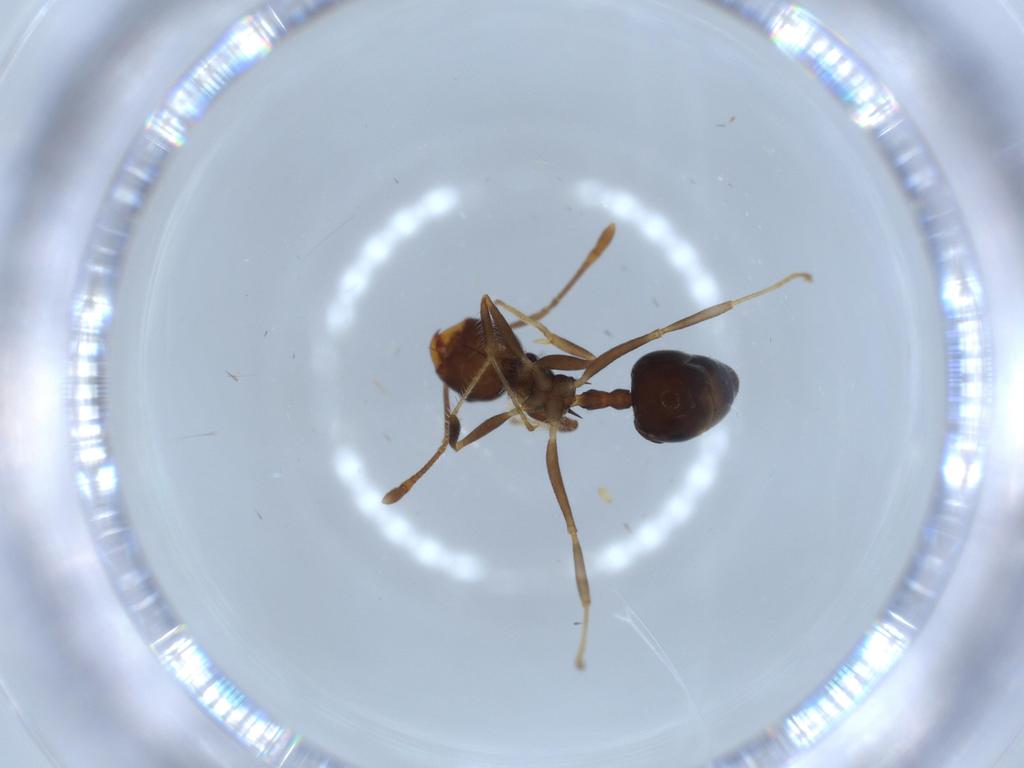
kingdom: Animalia
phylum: Arthropoda
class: Insecta
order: Hymenoptera
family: Formicidae
